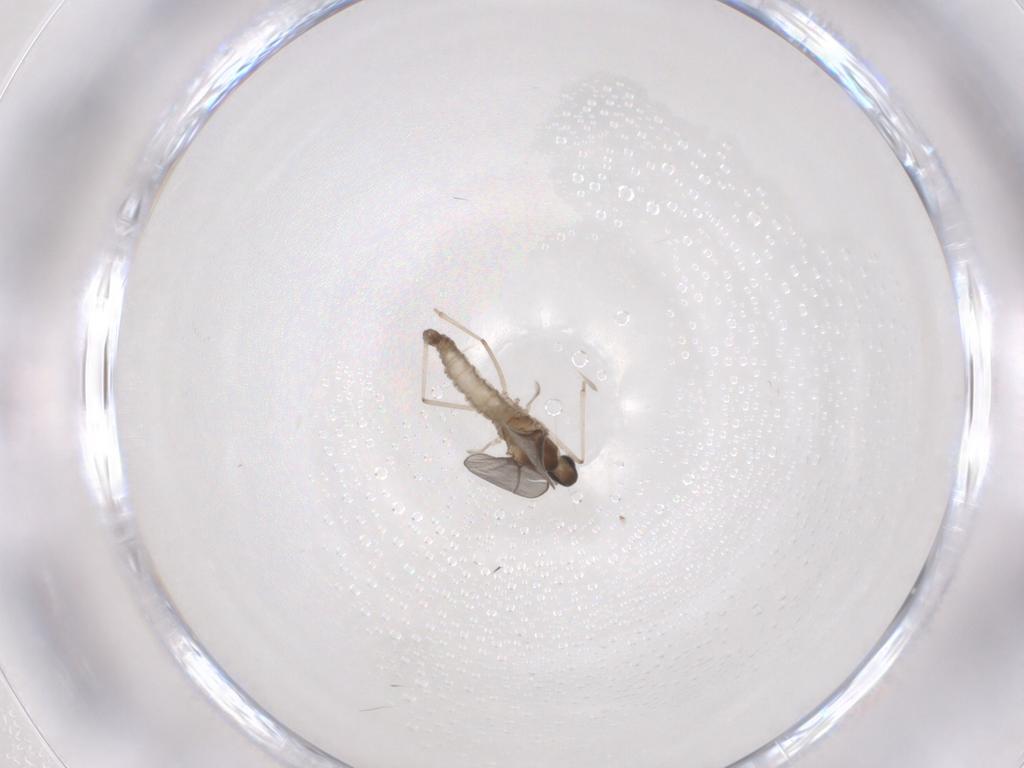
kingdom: Animalia
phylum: Arthropoda
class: Insecta
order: Diptera
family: Cecidomyiidae
